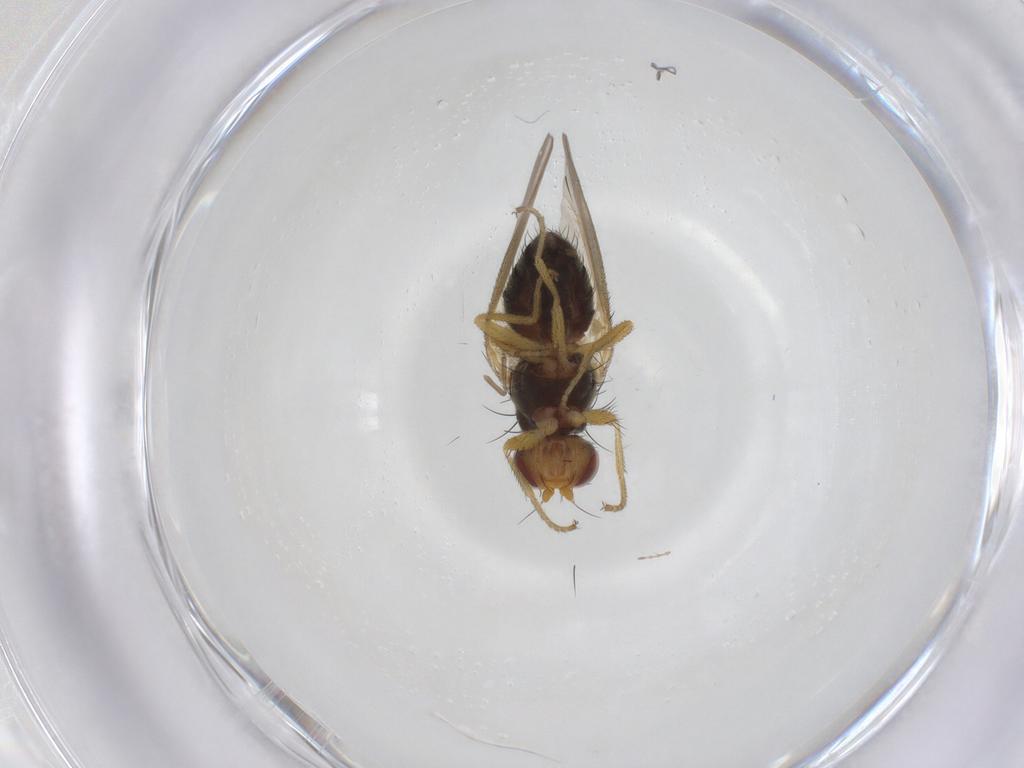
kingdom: Animalia
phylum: Arthropoda
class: Insecta
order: Diptera
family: Heleomyzidae
